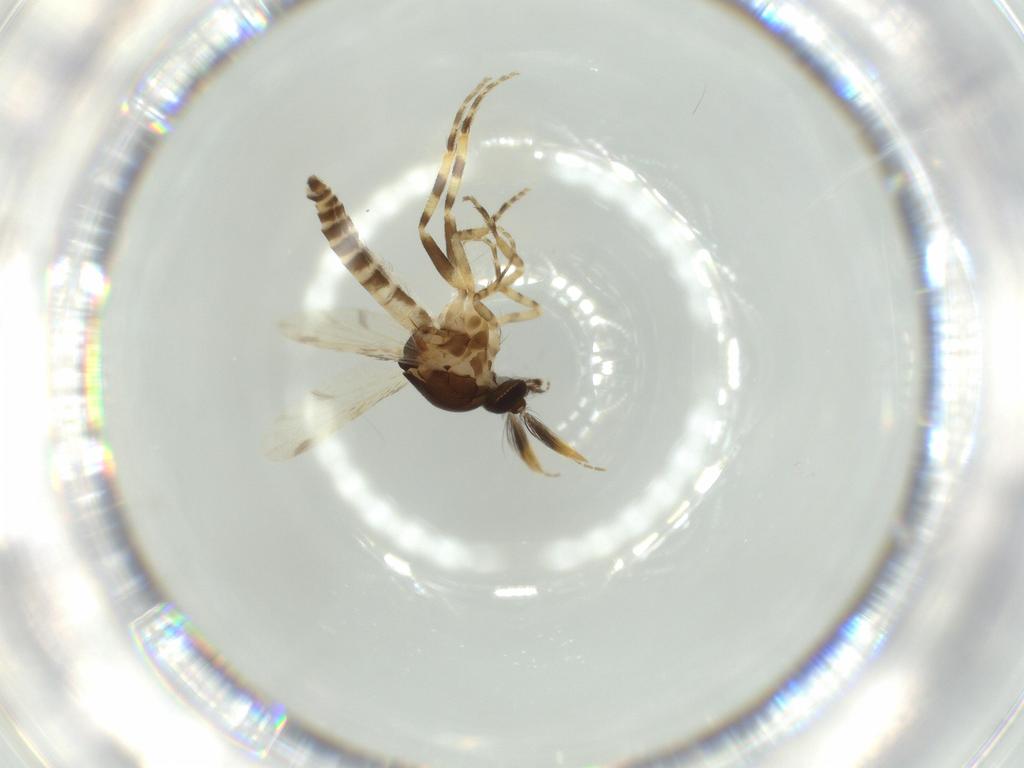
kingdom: Animalia
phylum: Arthropoda
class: Insecta
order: Diptera
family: Ceratopogonidae
